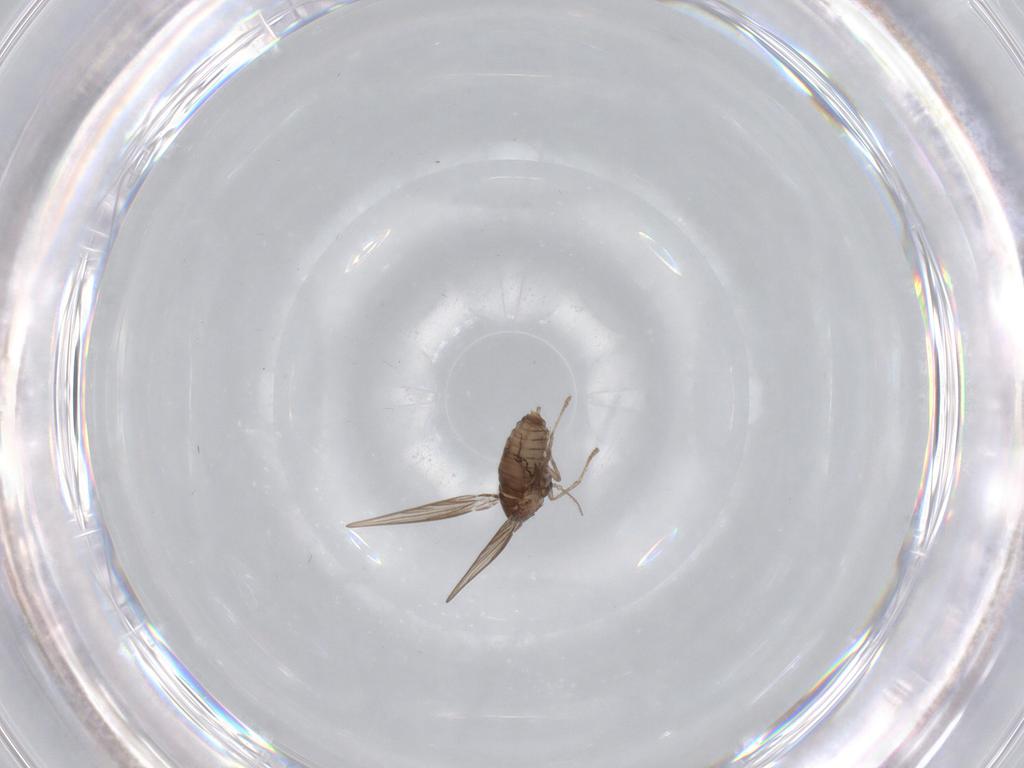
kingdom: Animalia
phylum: Arthropoda
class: Insecta
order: Diptera
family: Psychodidae
